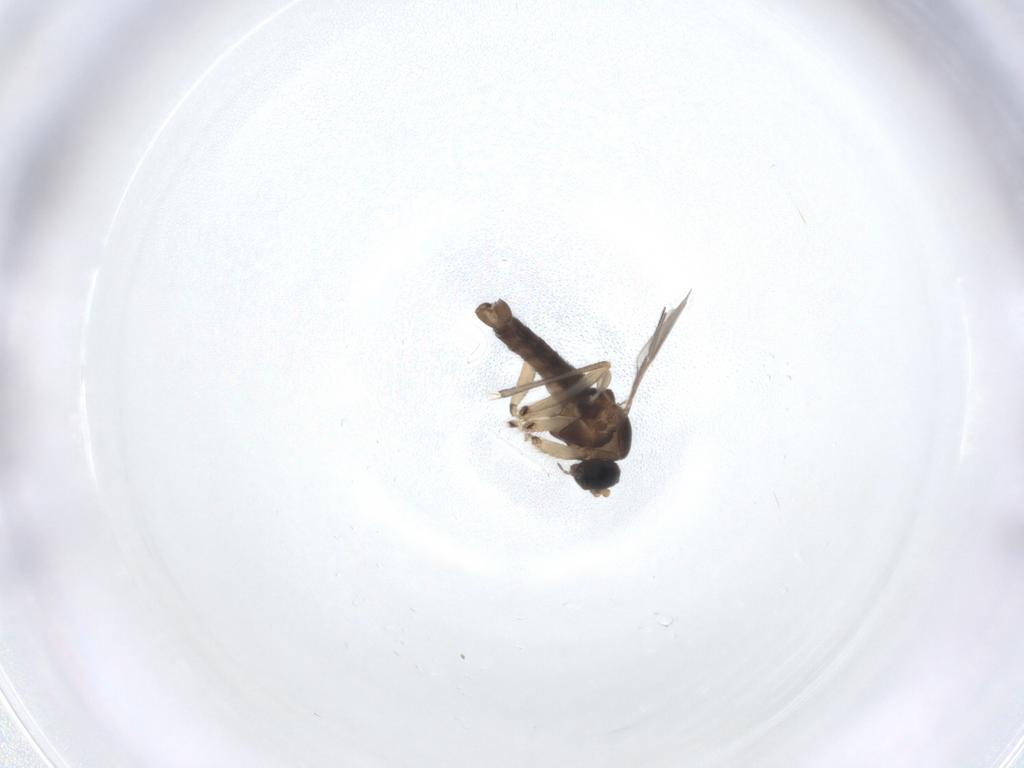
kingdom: Animalia
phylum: Arthropoda
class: Insecta
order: Diptera
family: Sciaridae
